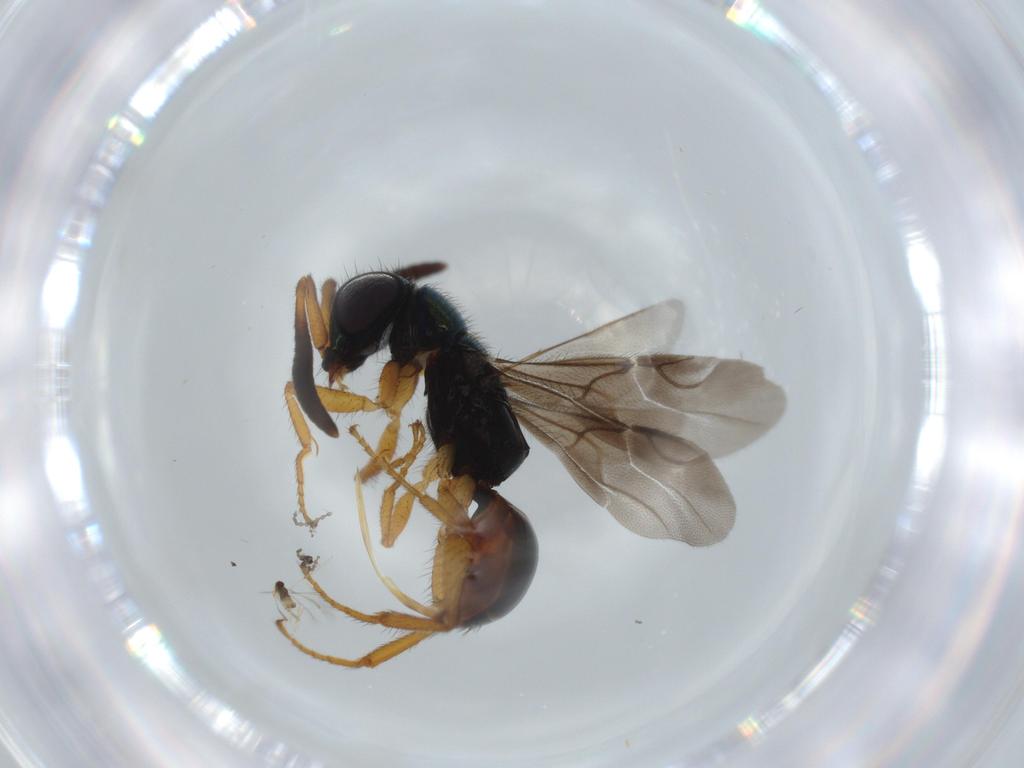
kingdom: Animalia
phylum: Arthropoda
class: Insecta
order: Hymenoptera
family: Chrysididae
